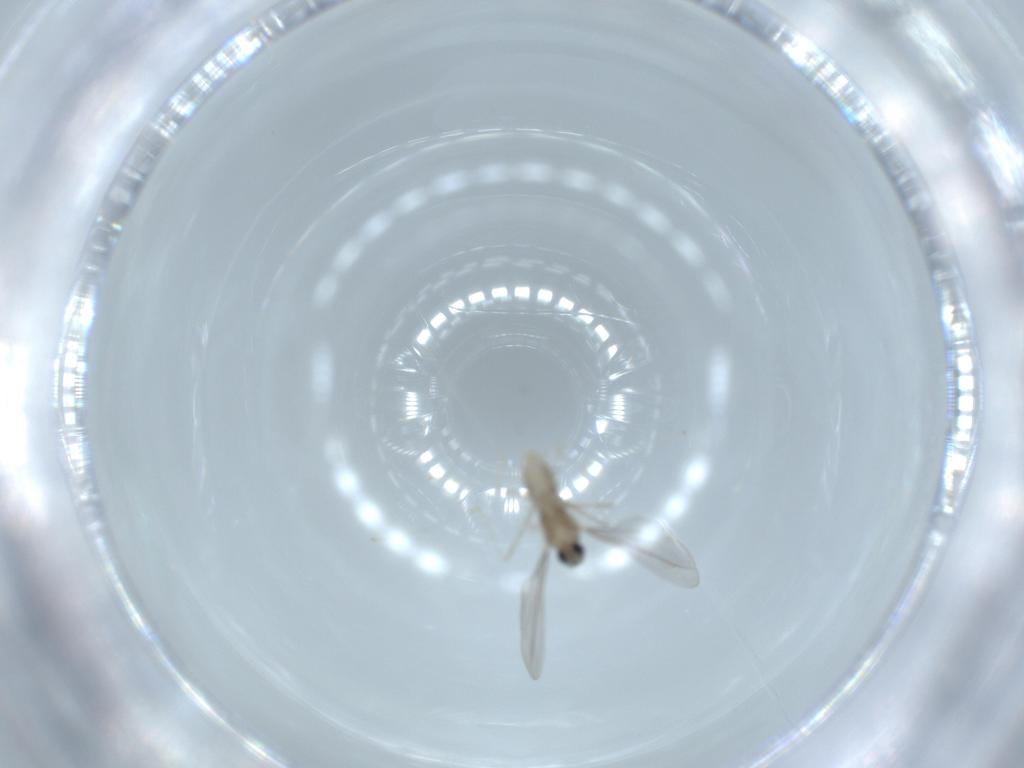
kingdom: Animalia
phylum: Arthropoda
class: Insecta
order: Diptera
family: Cecidomyiidae
